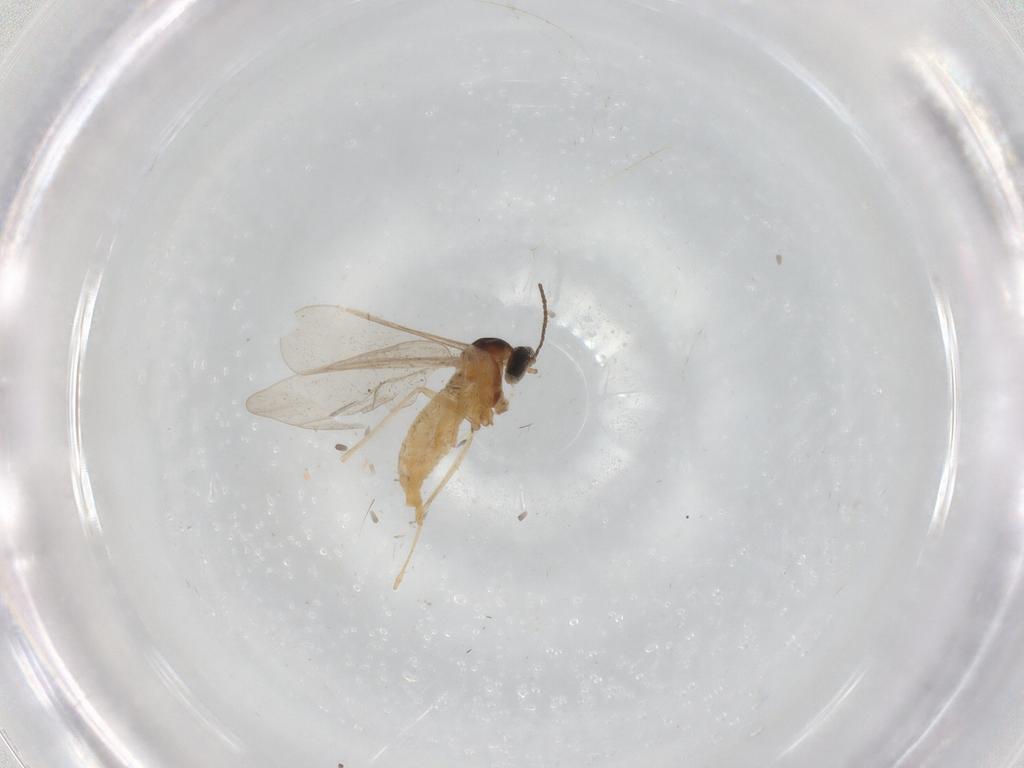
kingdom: Animalia
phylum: Arthropoda
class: Insecta
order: Diptera
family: Cecidomyiidae
